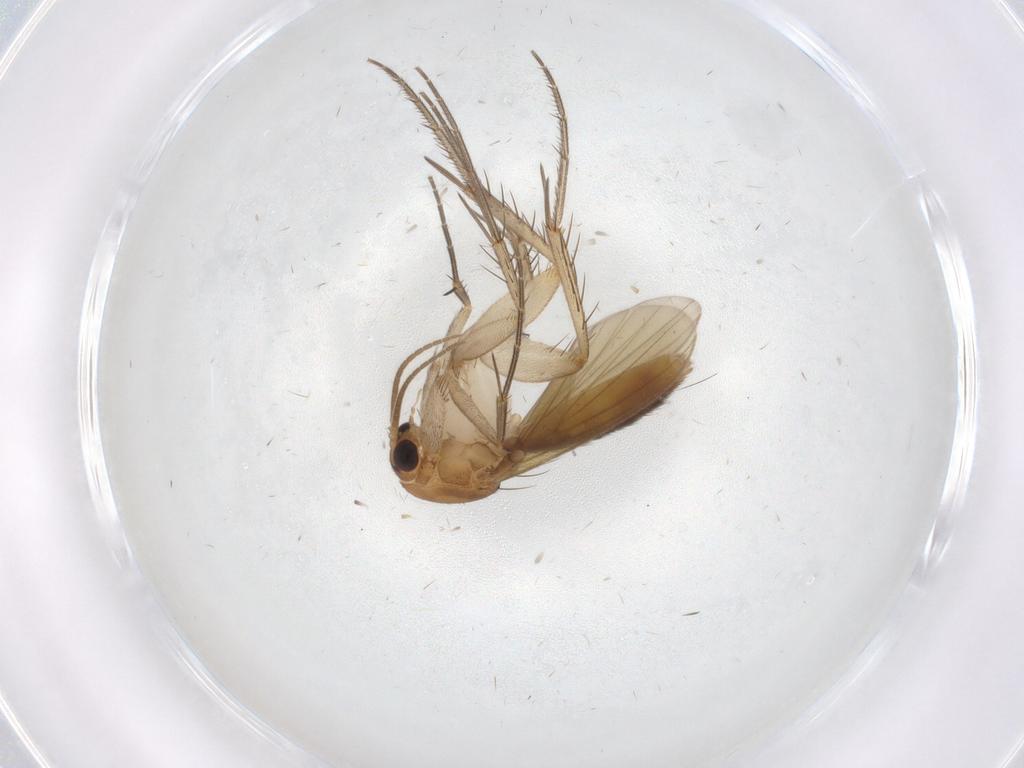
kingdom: Animalia
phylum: Arthropoda
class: Insecta
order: Diptera
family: Mycetophilidae
